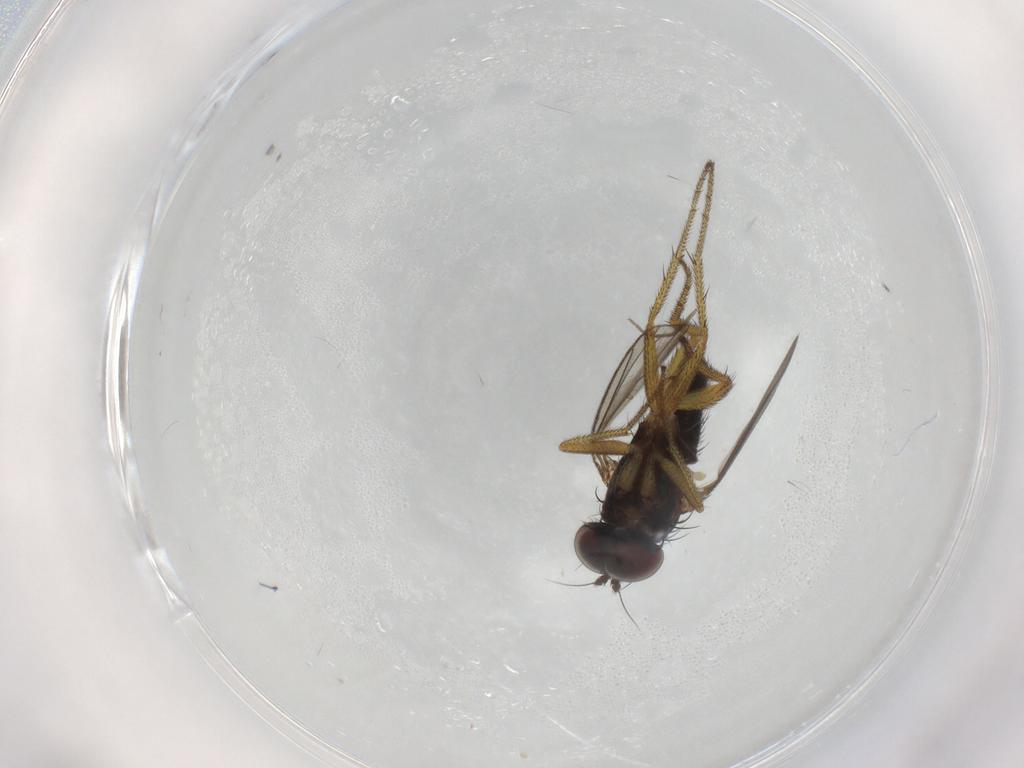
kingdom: Animalia
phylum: Arthropoda
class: Insecta
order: Diptera
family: Dolichopodidae
